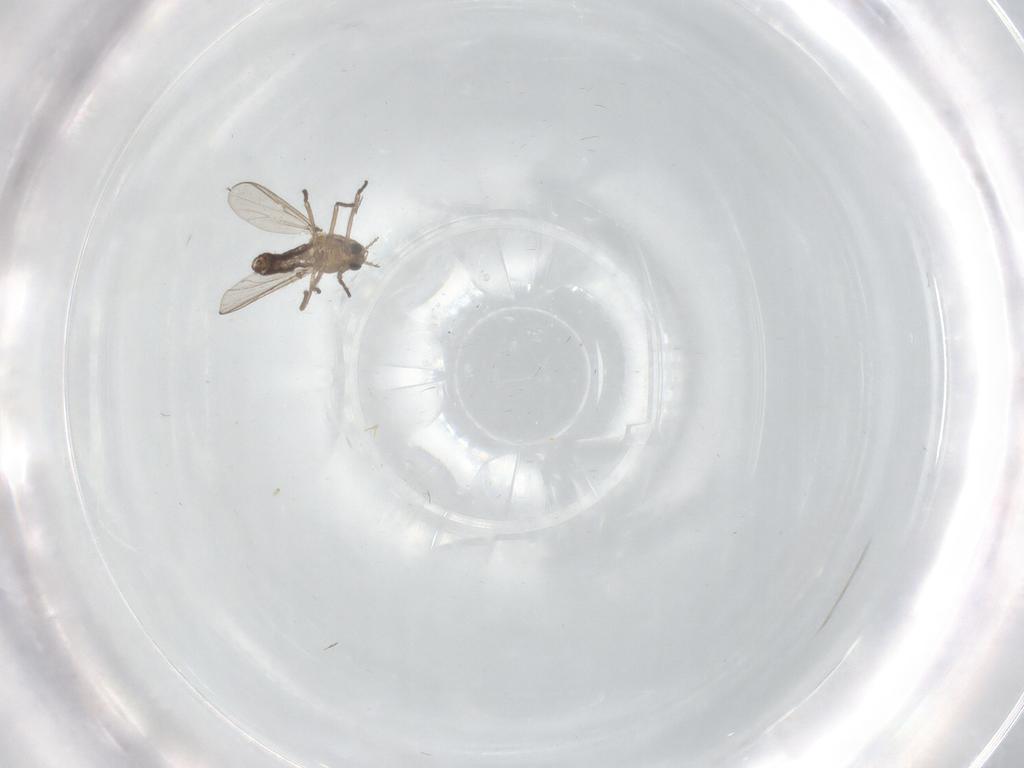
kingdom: Animalia
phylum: Arthropoda
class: Insecta
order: Diptera
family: Chironomidae
